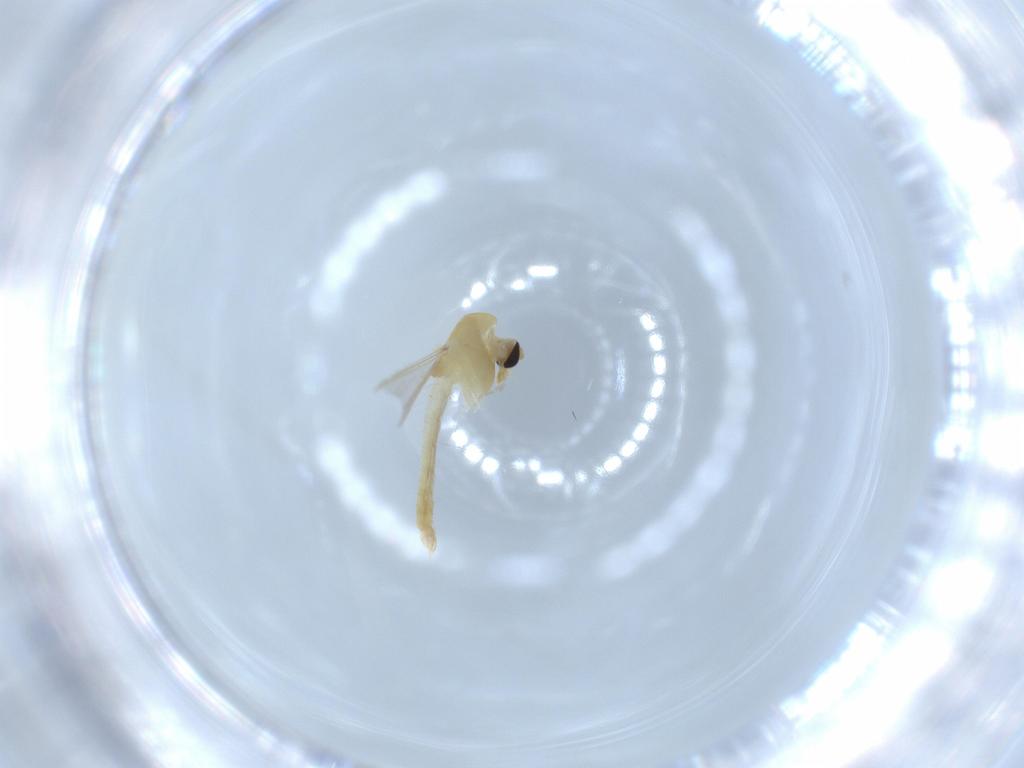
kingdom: Animalia
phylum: Arthropoda
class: Insecta
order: Diptera
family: Chironomidae
